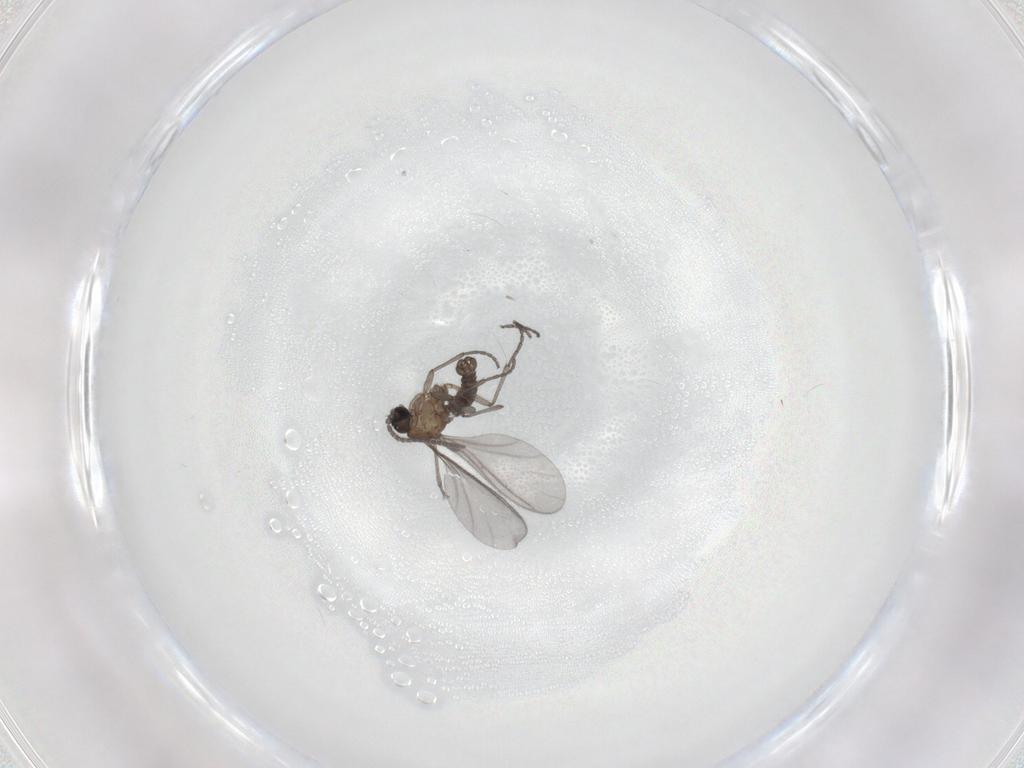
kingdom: Animalia
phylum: Arthropoda
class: Insecta
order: Diptera
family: Sciaridae
